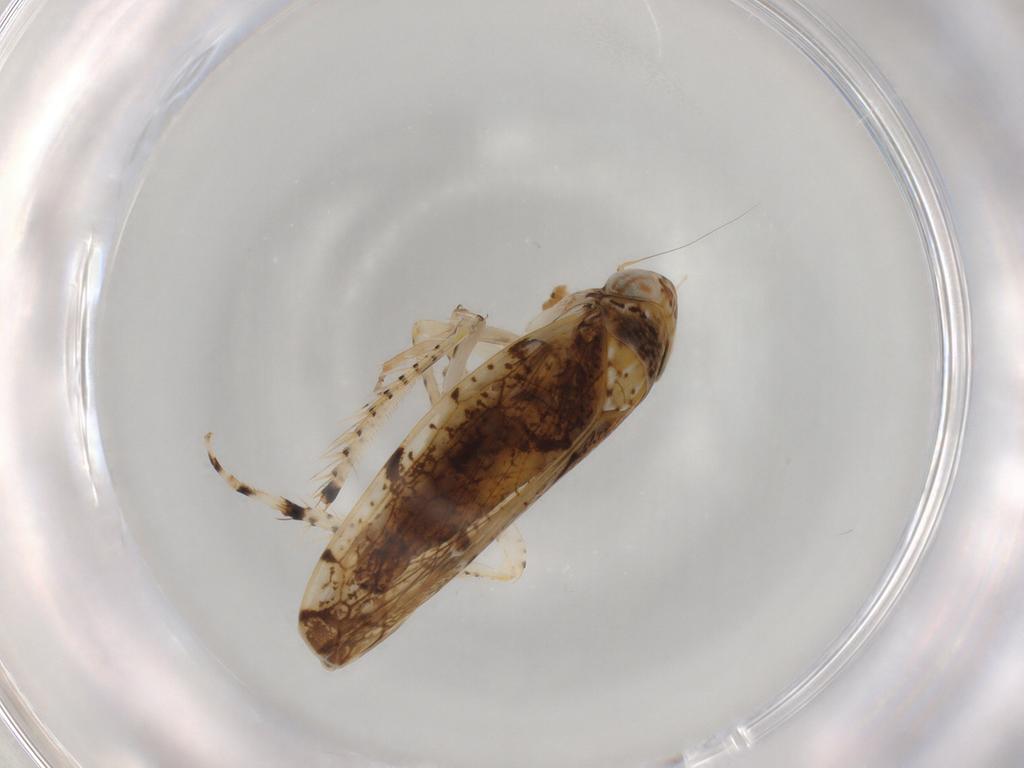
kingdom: Animalia
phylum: Arthropoda
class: Insecta
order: Hemiptera
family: Cicadellidae
